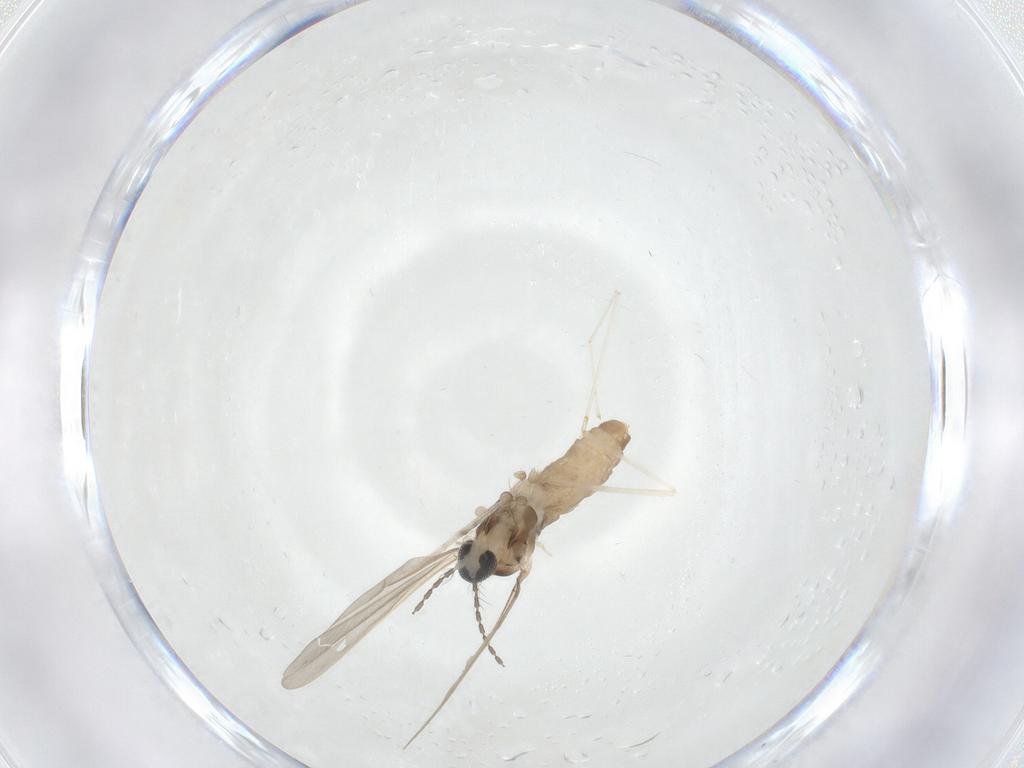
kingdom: Animalia
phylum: Arthropoda
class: Insecta
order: Diptera
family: Cecidomyiidae
